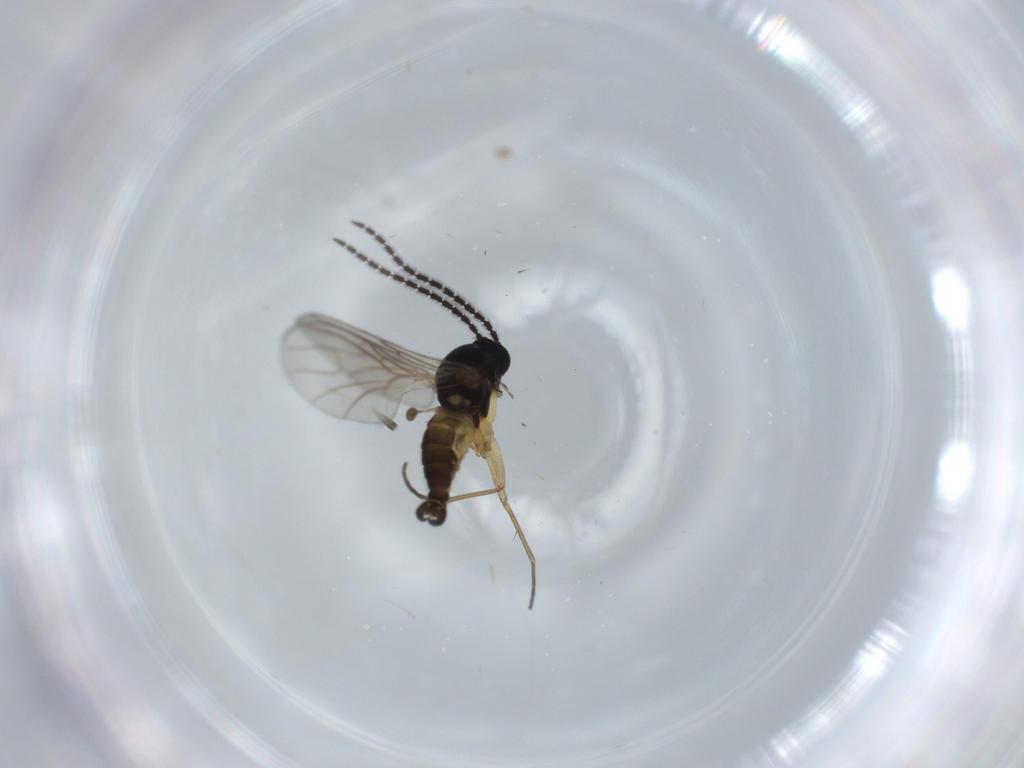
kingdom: Animalia
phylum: Arthropoda
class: Insecta
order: Diptera
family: Sciaridae
